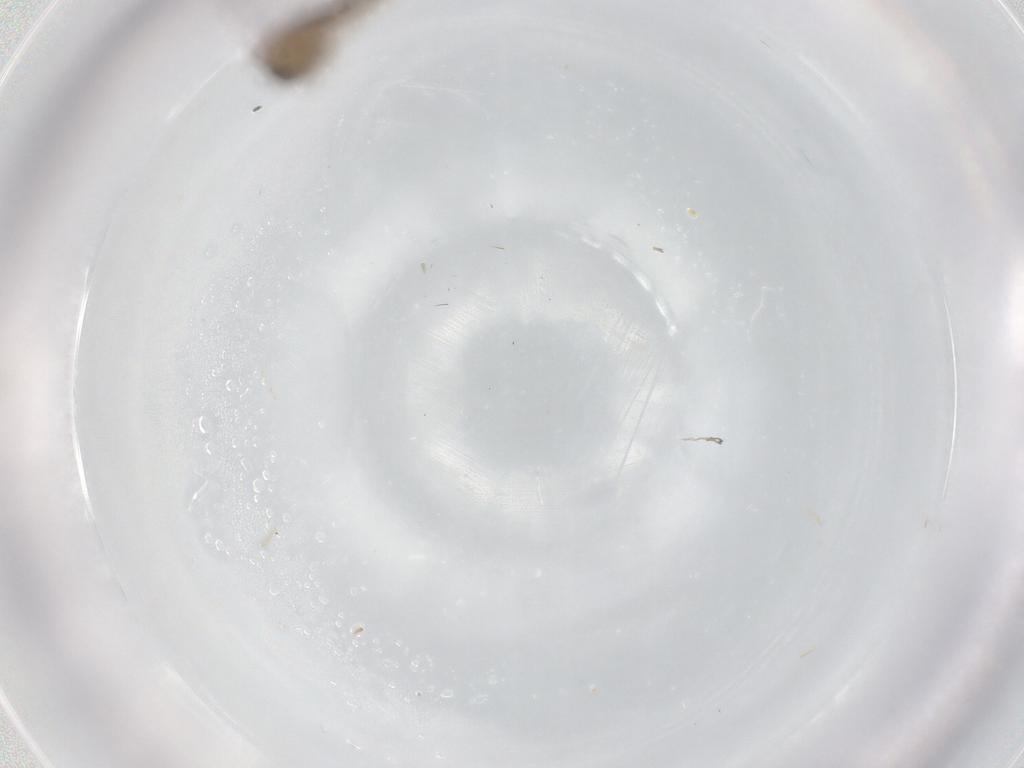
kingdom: Animalia
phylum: Arthropoda
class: Insecta
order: Diptera
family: Psychodidae
